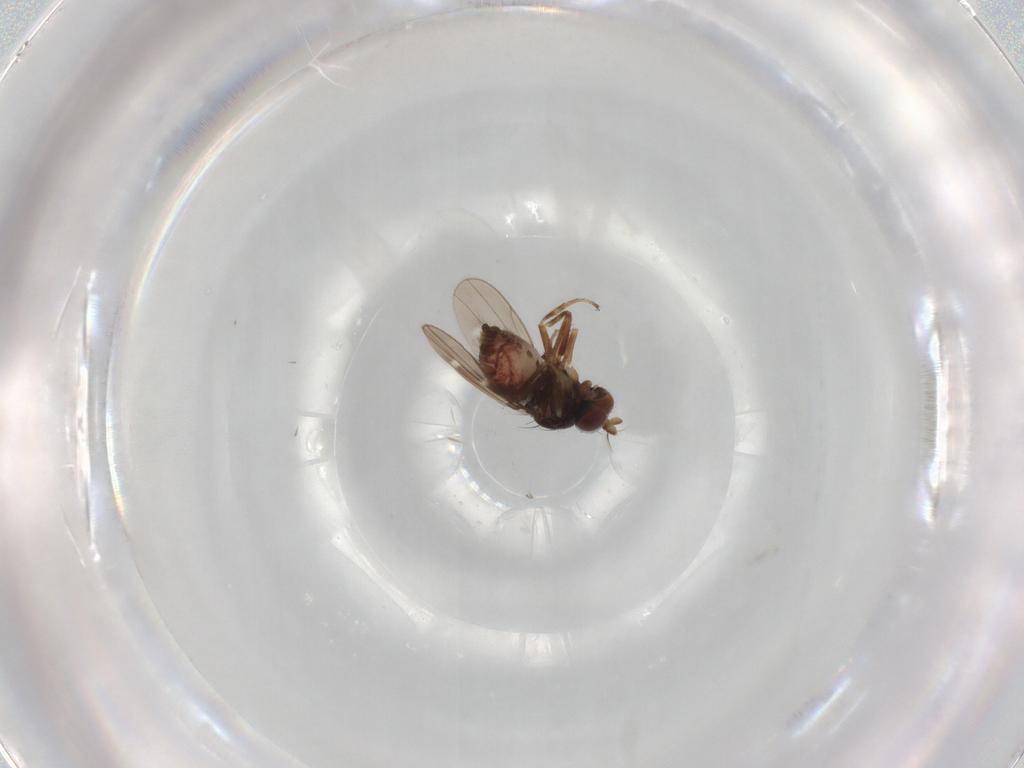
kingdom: Animalia
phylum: Arthropoda
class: Insecta
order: Diptera
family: Ephydridae
